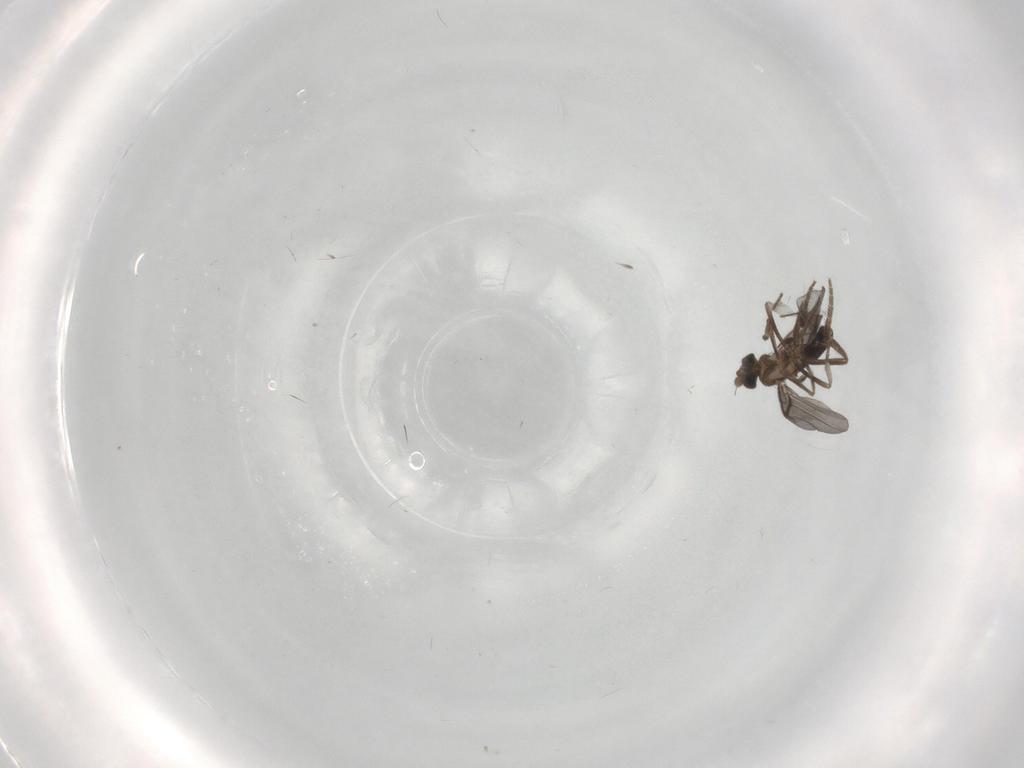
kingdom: Animalia
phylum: Arthropoda
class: Insecta
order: Diptera
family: Phoridae
